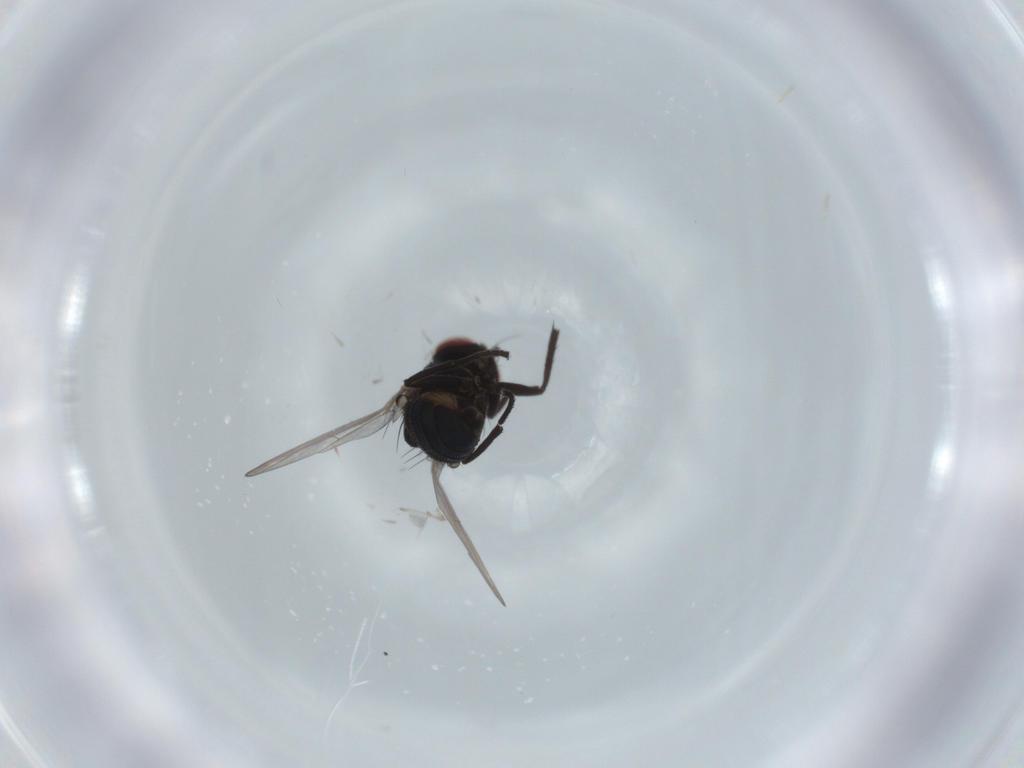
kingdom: Animalia
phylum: Arthropoda
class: Insecta
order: Diptera
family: Agromyzidae
